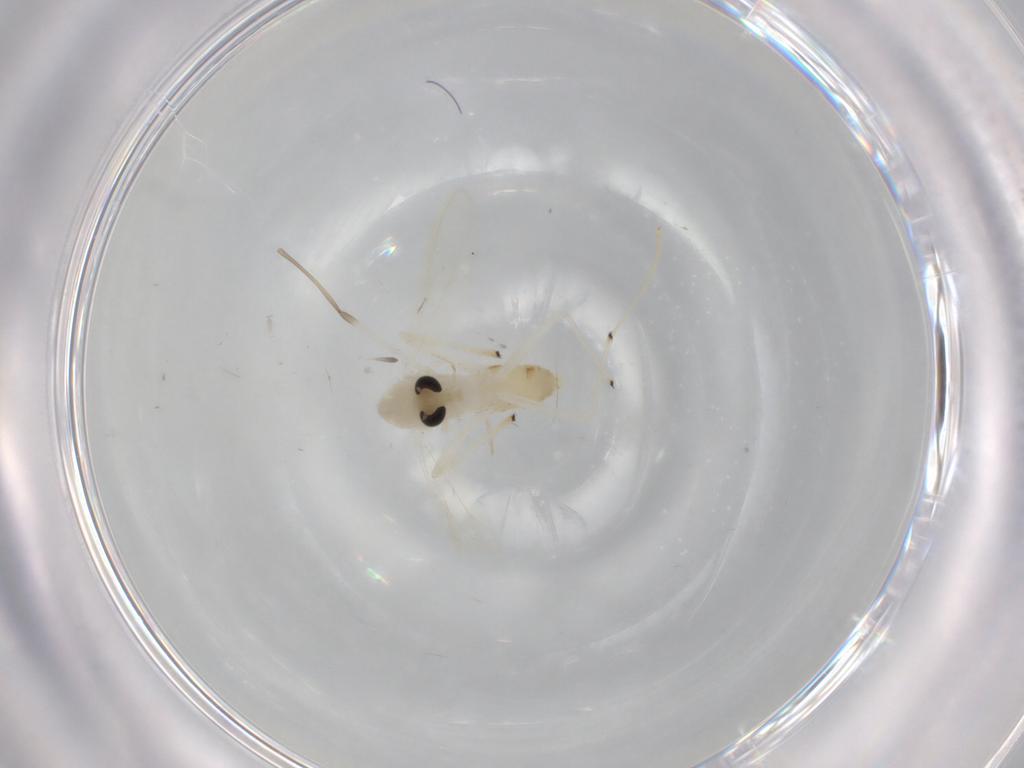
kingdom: Animalia
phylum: Arthropoda
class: Insecta
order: Diptera
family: Chironomidae
